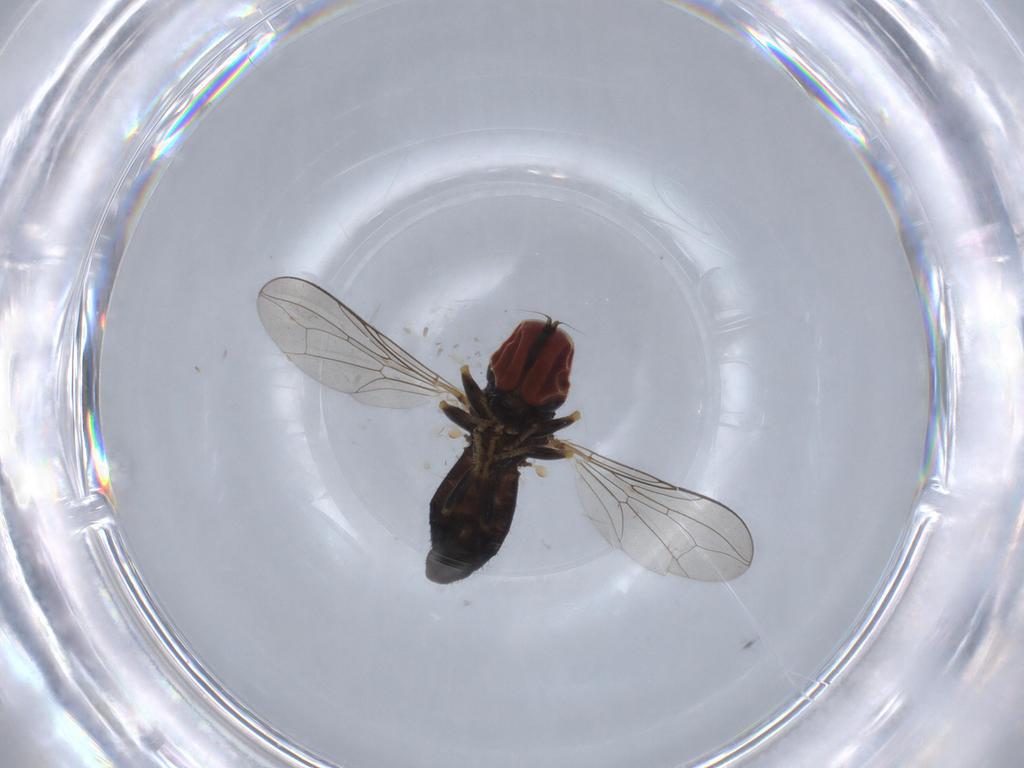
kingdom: Animalia
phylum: Arthropoda
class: Insecta
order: Diptera
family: Pipunculidae
